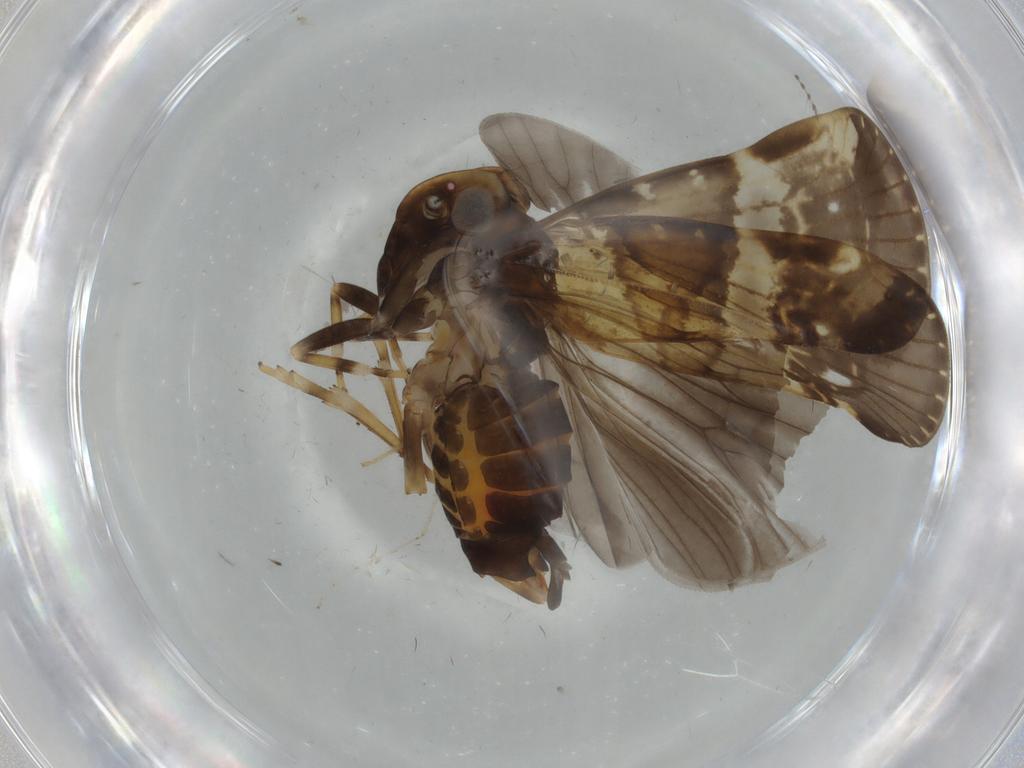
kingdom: Animalia
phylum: Arthropoda
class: Insecta
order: Hemiptera
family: Cixiidae
